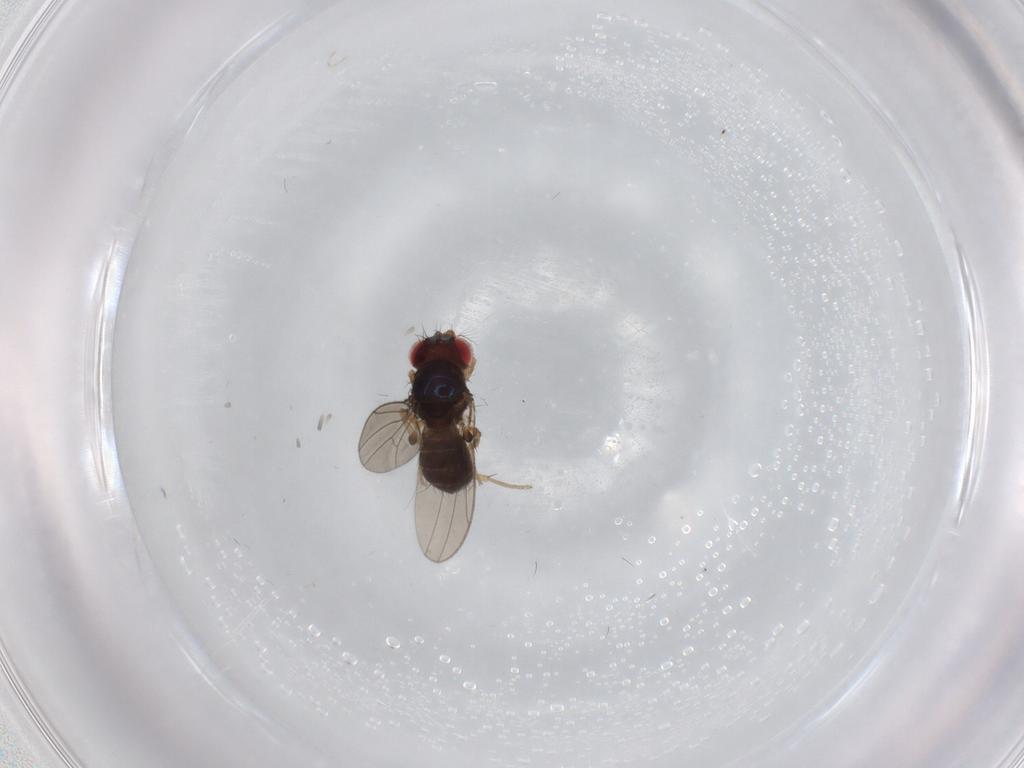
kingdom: Animalia
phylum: Arthropoda
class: Insecta
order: Diptera
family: Drosophilidae
